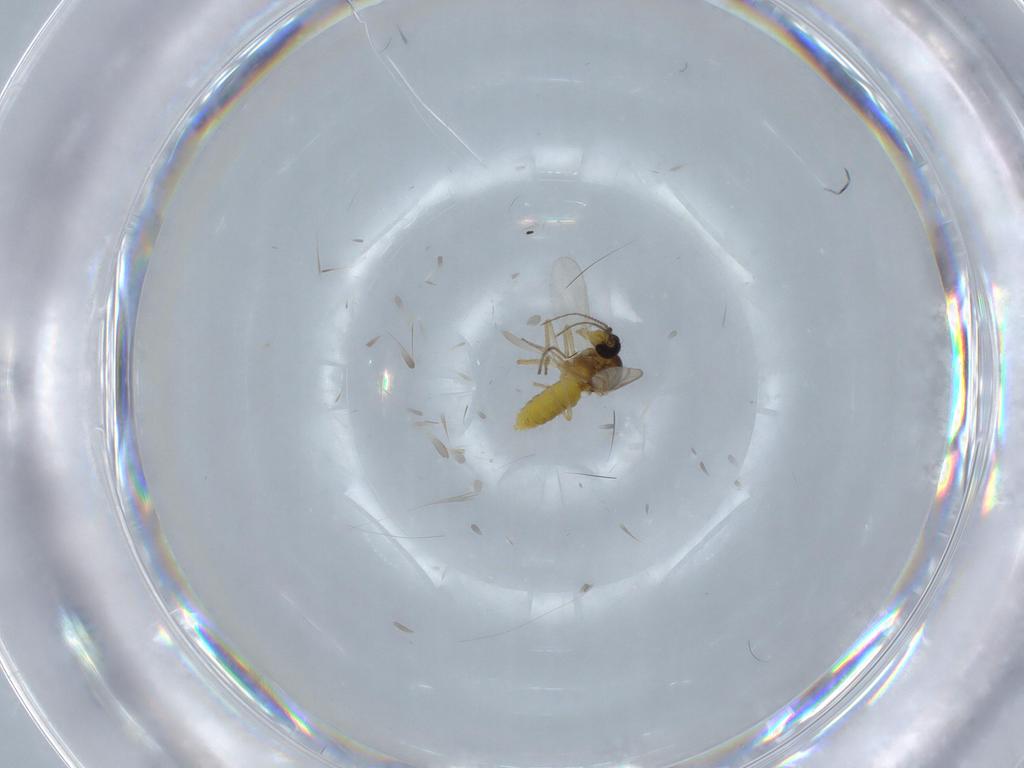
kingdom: Animalia
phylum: Arthropoda
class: Insecta
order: Diptera
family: Ceratopogonidae
